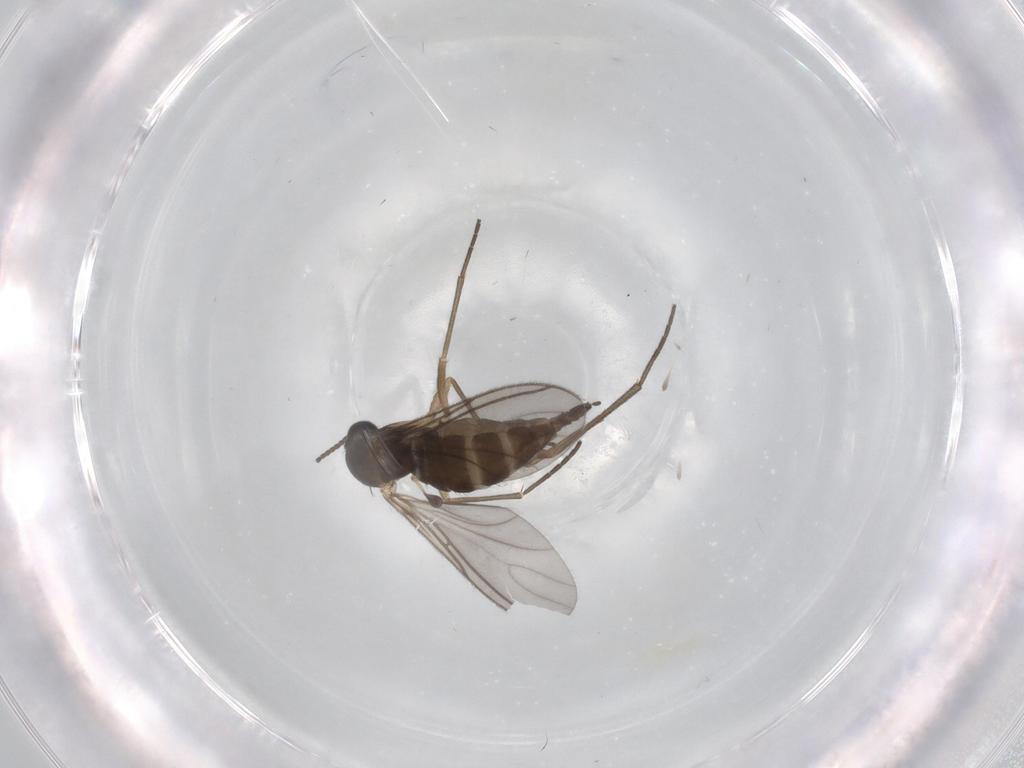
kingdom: Animalia
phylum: Arthropoda
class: Insecta
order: Diptera
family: Sciaridae
